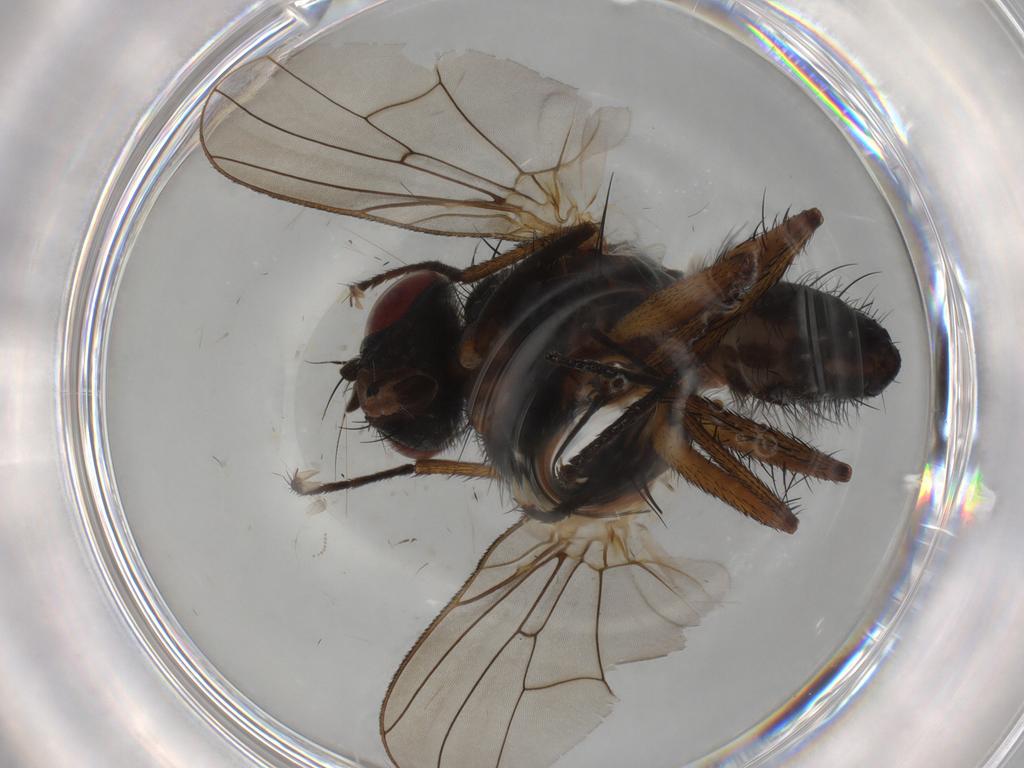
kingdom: Animalia
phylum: Arthropoda
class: Insecta
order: Diptera
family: Anthomyiidae
